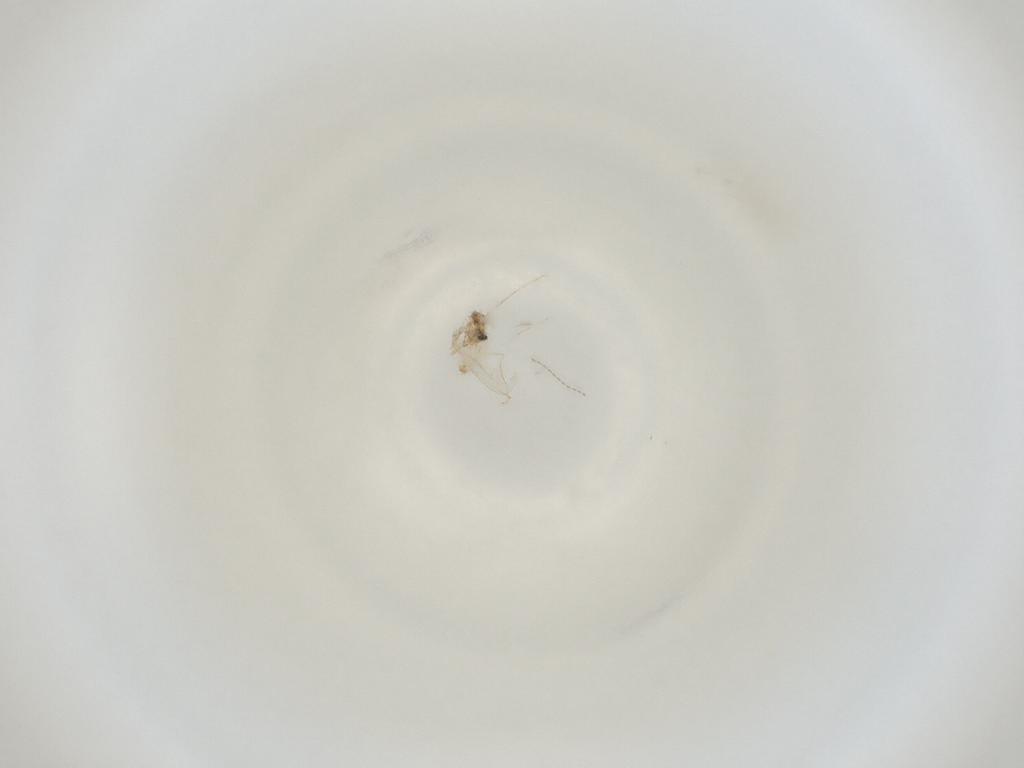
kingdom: Animalia
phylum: Arthropoda
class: Insecta
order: Diptera
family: Cecidomyiidae
